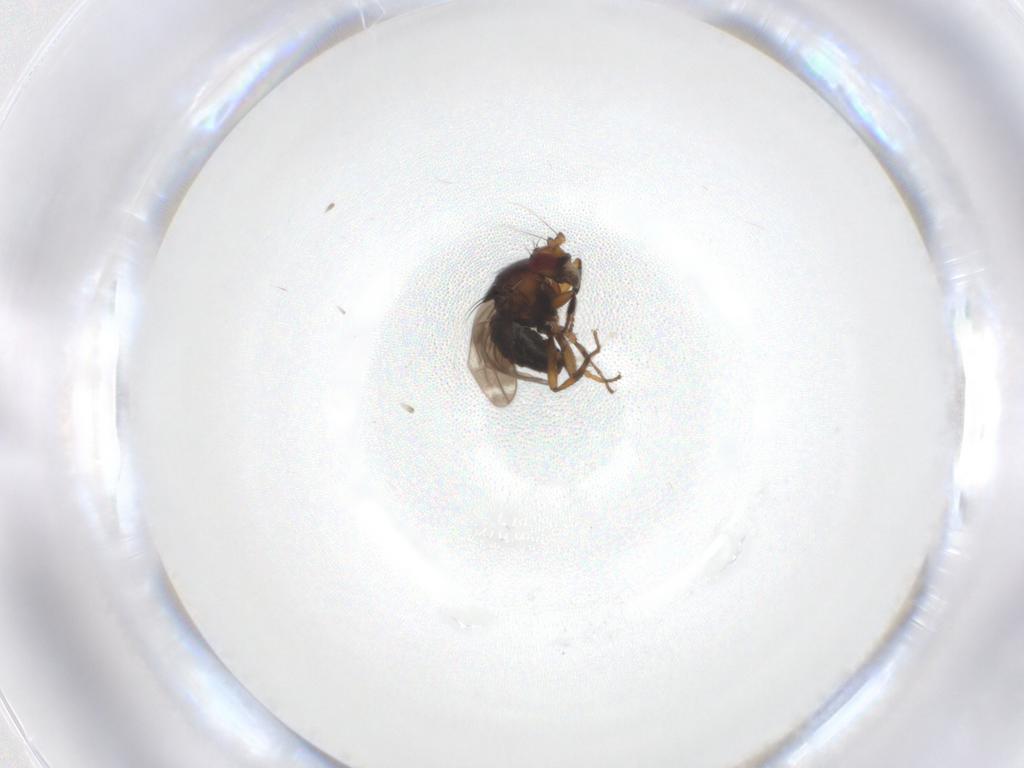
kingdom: Animalia
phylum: Arthropoda
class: Insecta
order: Diptera
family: Sphaeroceridae
